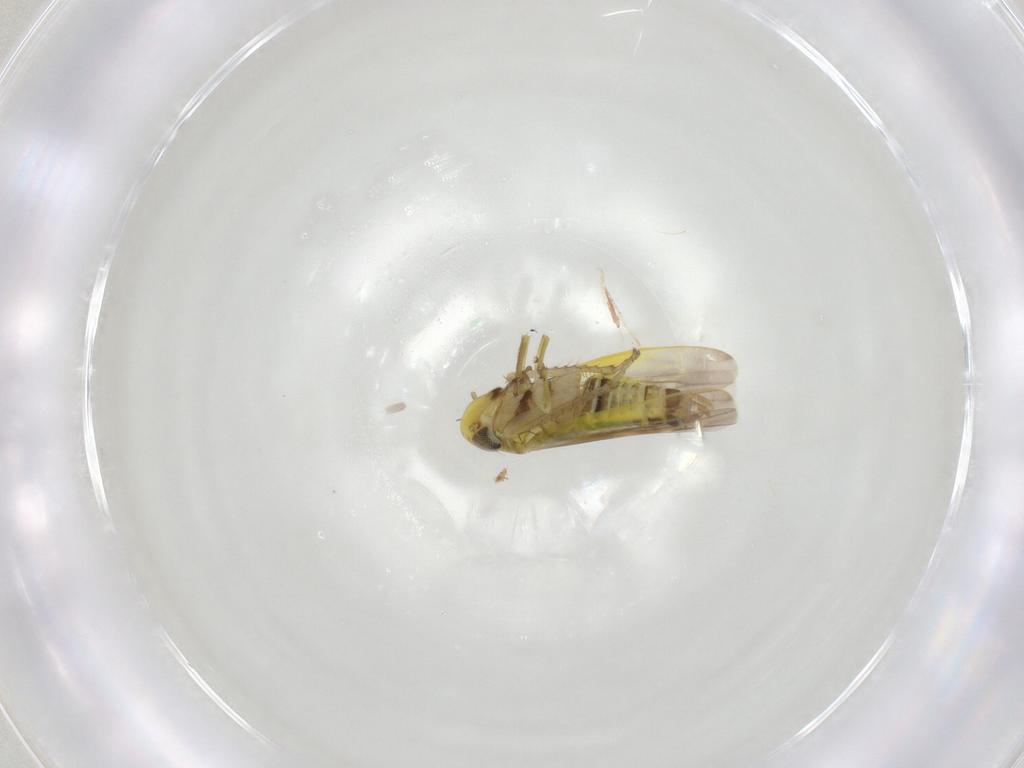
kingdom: Animalia
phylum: Arthropoda
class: Insecta
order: Hemiptera
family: Cicadellidae
